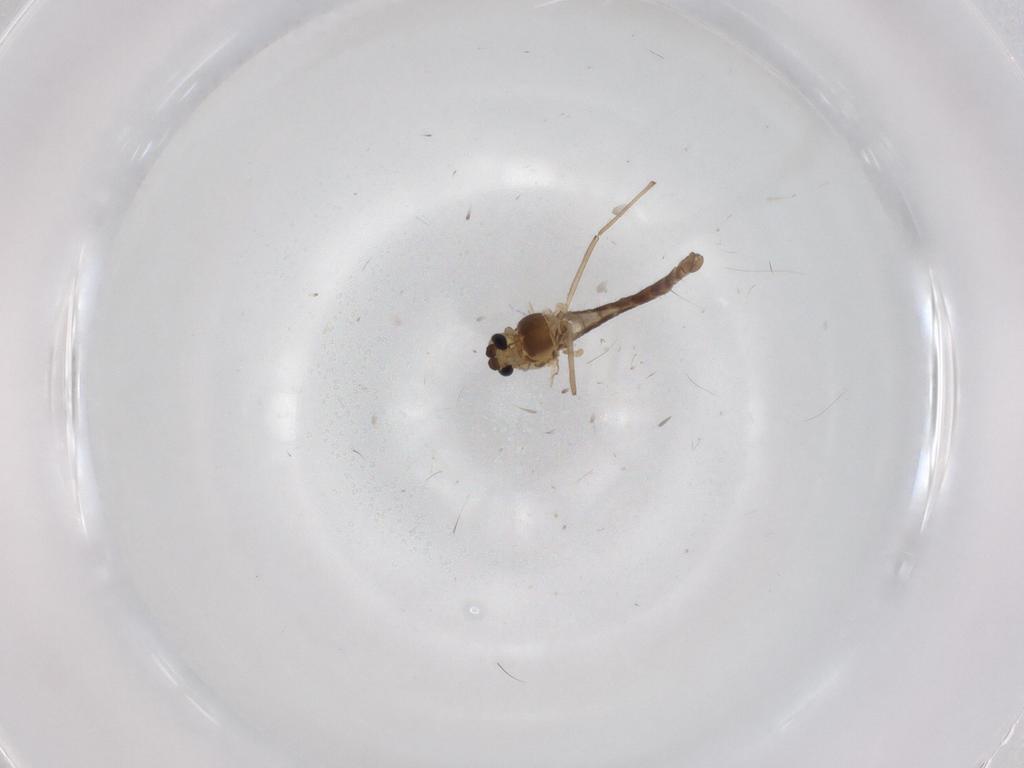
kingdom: Animalia
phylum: Arthropoda
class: Insecta
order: Diptera
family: Chironomidae
